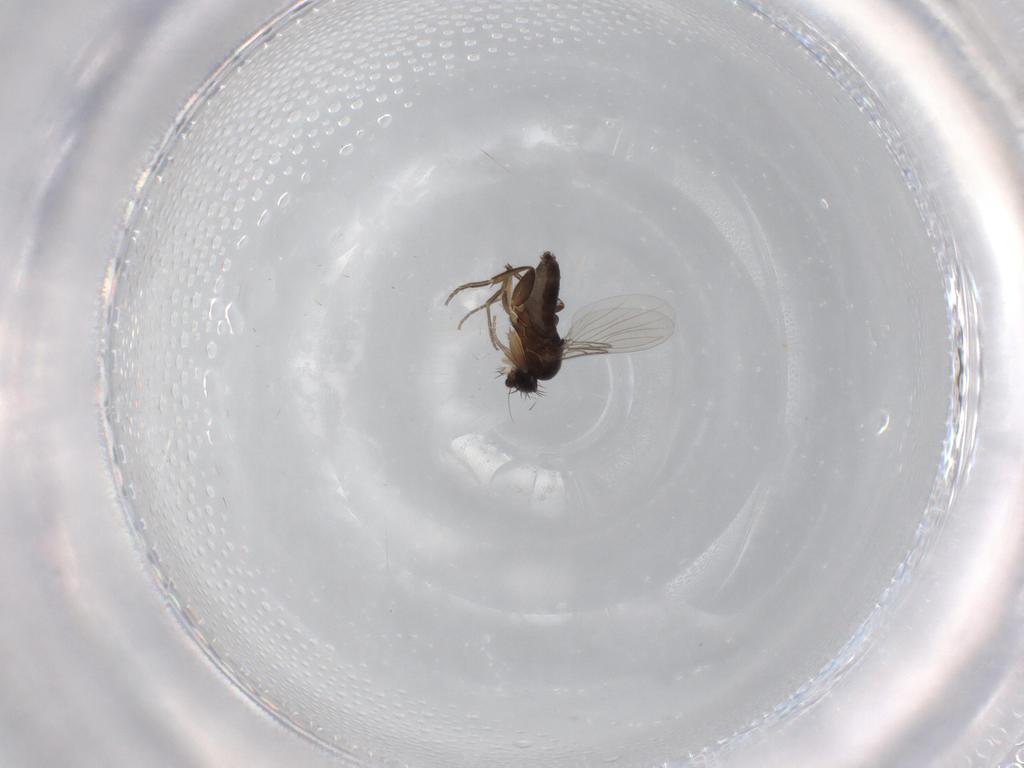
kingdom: Animalia
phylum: Arthropoda
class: Insecta
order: Diptera
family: Phoridae
